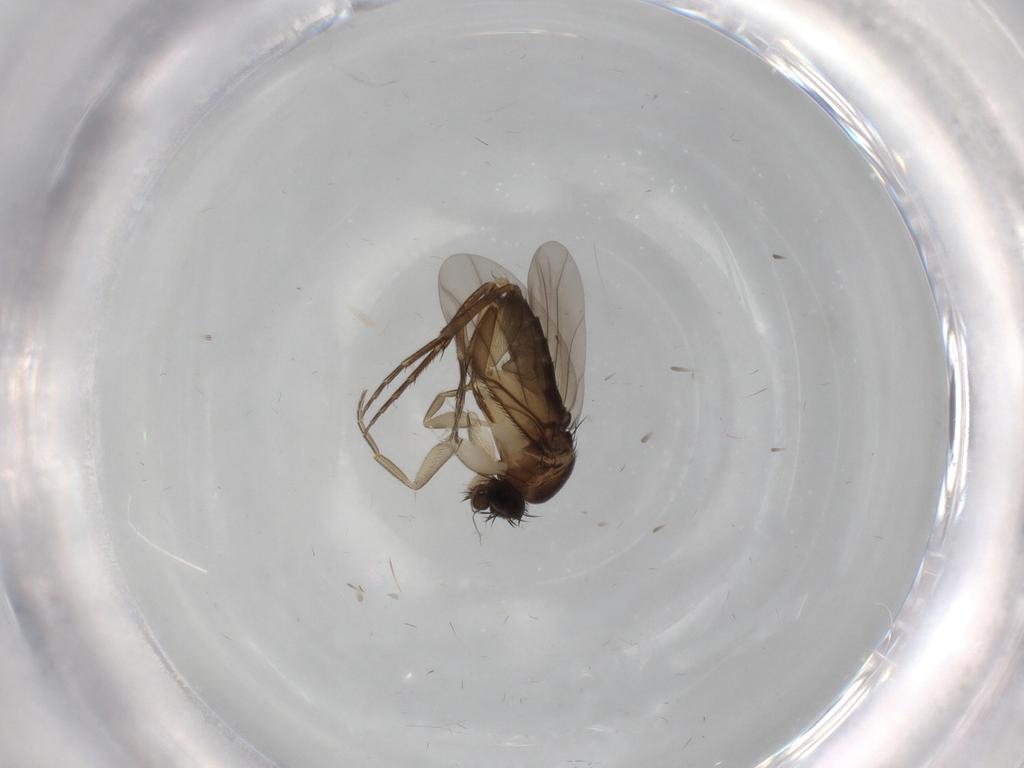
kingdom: Animalia
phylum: Arthropoda
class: Insecta
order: Diptera
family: Phoridae
